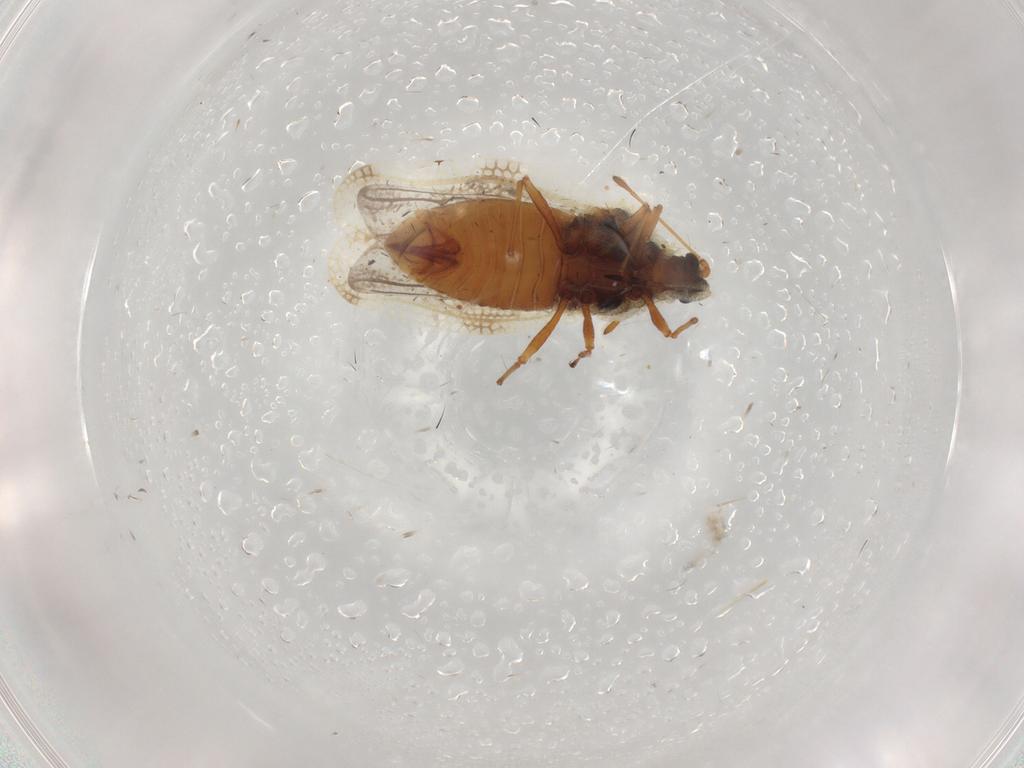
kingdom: Animalia
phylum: Arthropoda
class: Insecta
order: Hemiptera
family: Tingidae
